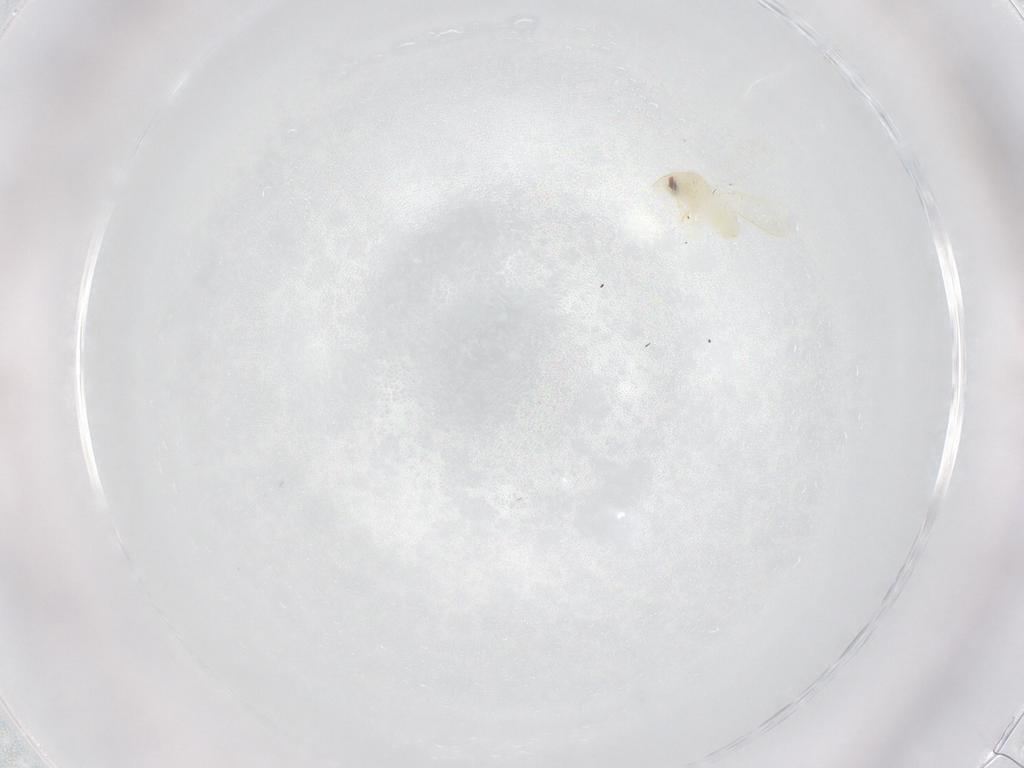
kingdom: Animalia
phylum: Arthropoda
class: Insecta
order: Hemiptera
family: Aleyrodidae
